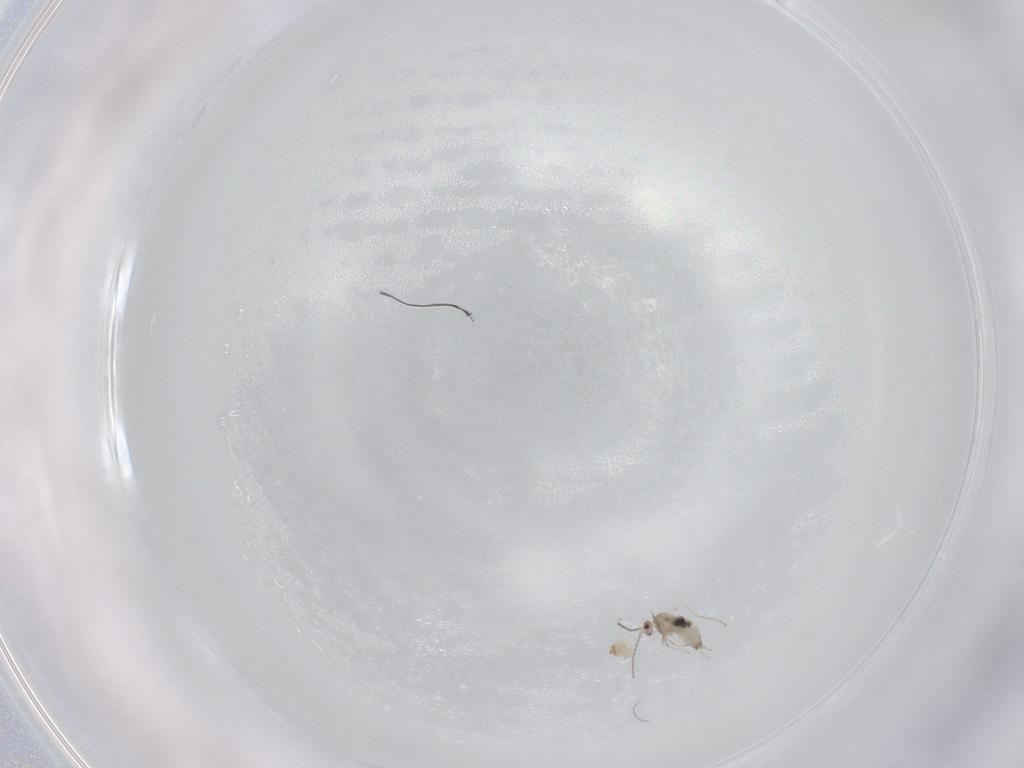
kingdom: Animalia
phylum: Arthropoda
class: Insecta
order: Diptera
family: Cecidomyiidae
